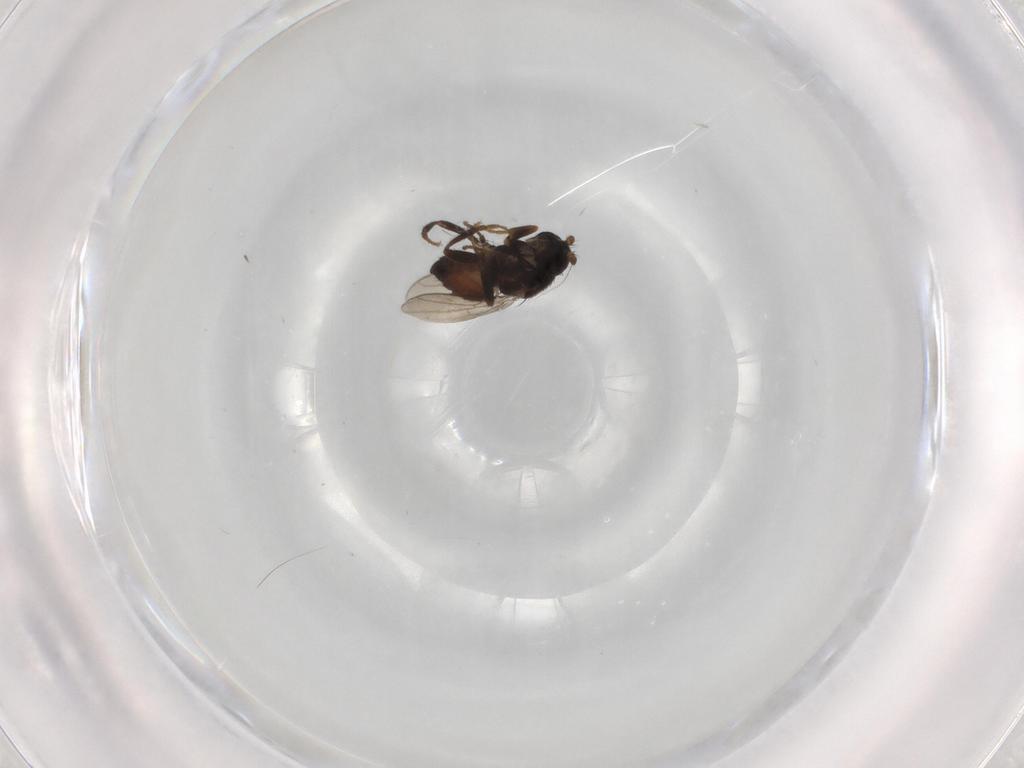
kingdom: Animalia
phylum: Arthropoda
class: Insecta
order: Diptera
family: Sphaeroceridae
